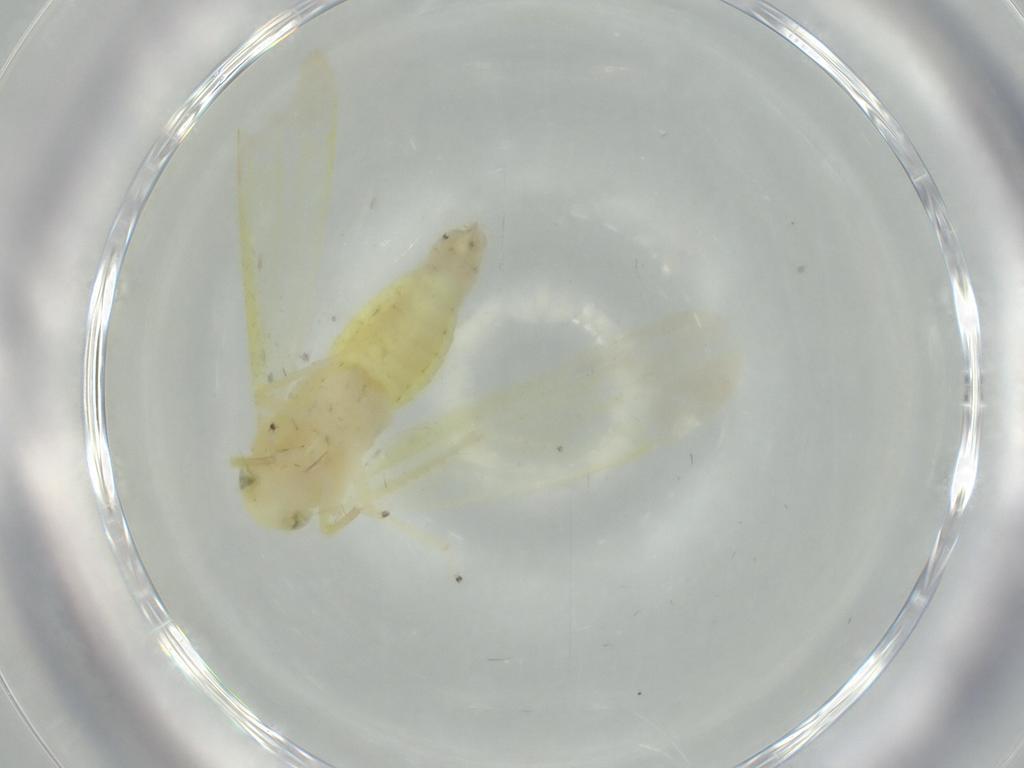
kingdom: Animalia
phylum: Arthropoda
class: Insecta
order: Hemiptera
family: Cicadellidae
